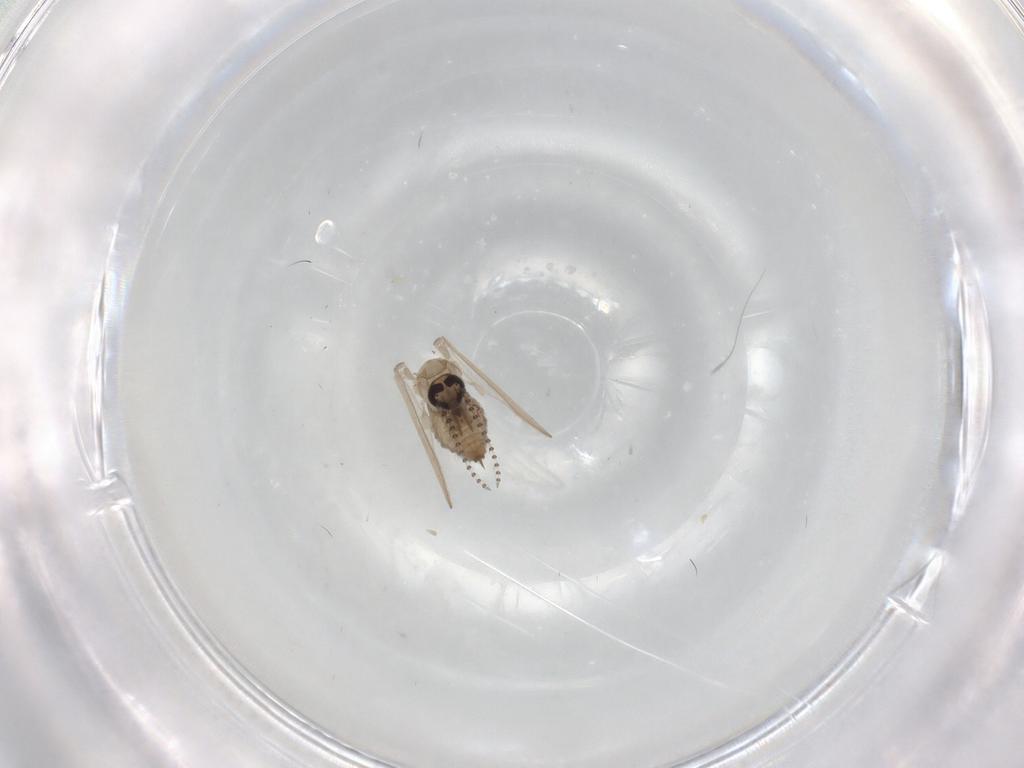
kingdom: Animalia
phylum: Arthropoda
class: Insecta
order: Diptera
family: Psychodidae
